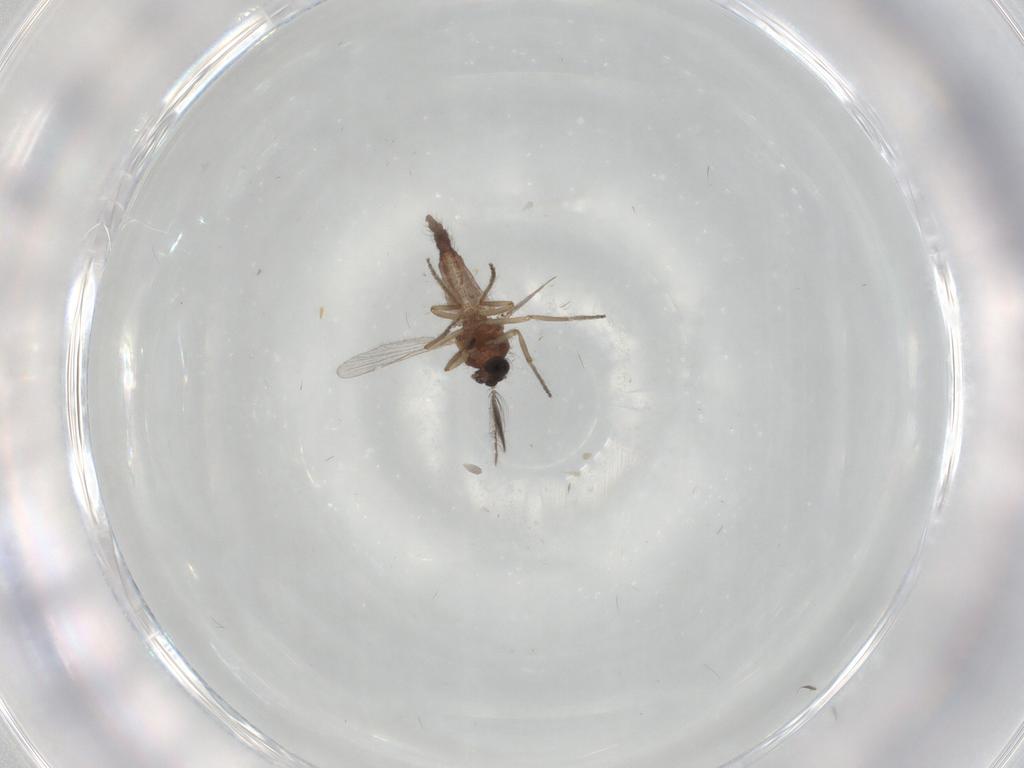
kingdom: Animalia
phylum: Arthropoda
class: Insecta
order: Diptera
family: Ceratopogonidae
